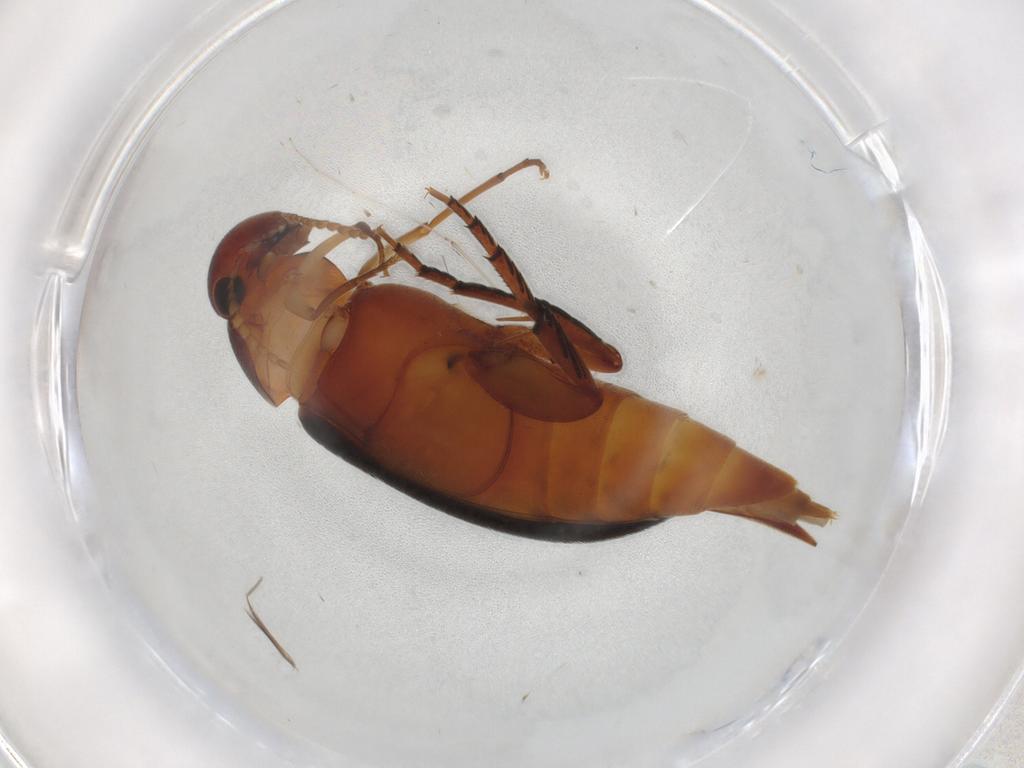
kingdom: Animalia
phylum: Arthropoda
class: Insecta
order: Coleoptera
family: Mordellidae
